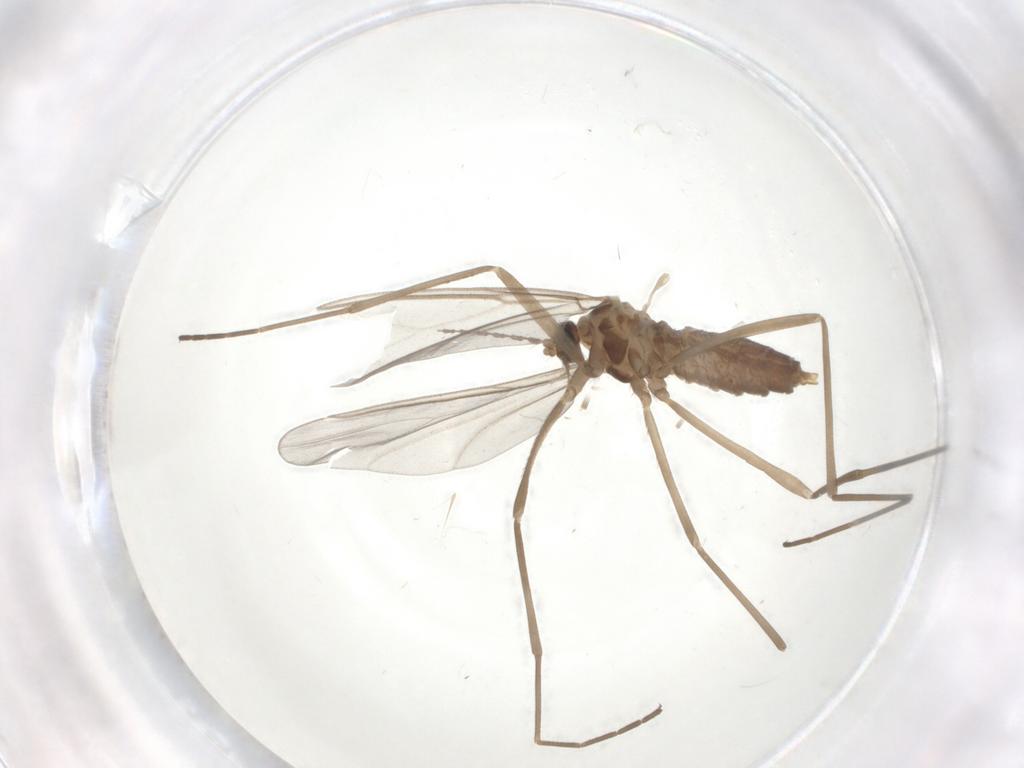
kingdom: Animalia
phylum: Arthropoda
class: Insecta
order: Diptera
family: Cecidomyiidae
